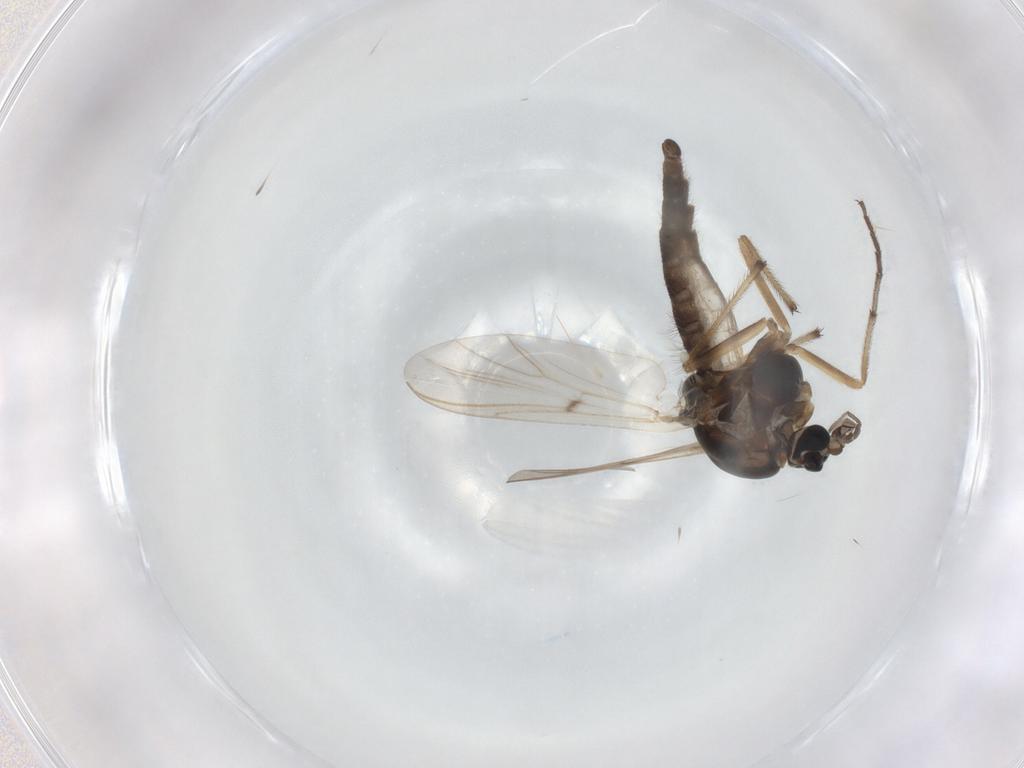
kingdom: Animalia
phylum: Arthropoda
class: Insecta
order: Diptera
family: Chironomidae
